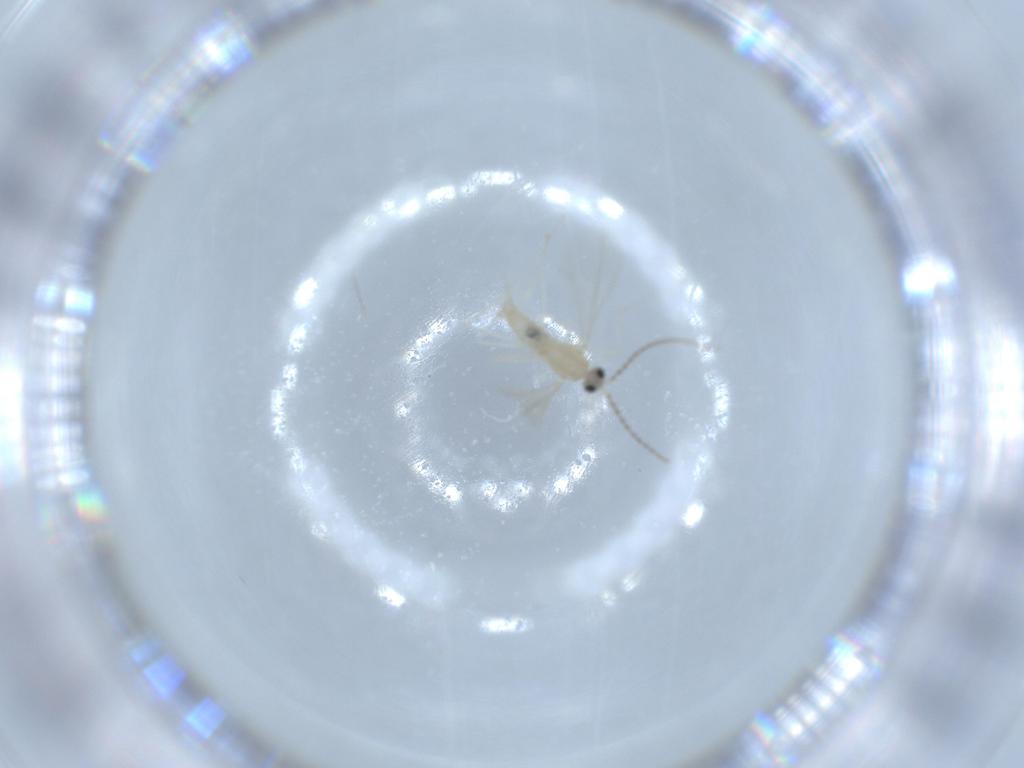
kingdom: Animalia
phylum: Arthropoda
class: Insecta
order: Diptera
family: Cecidomyiidae
